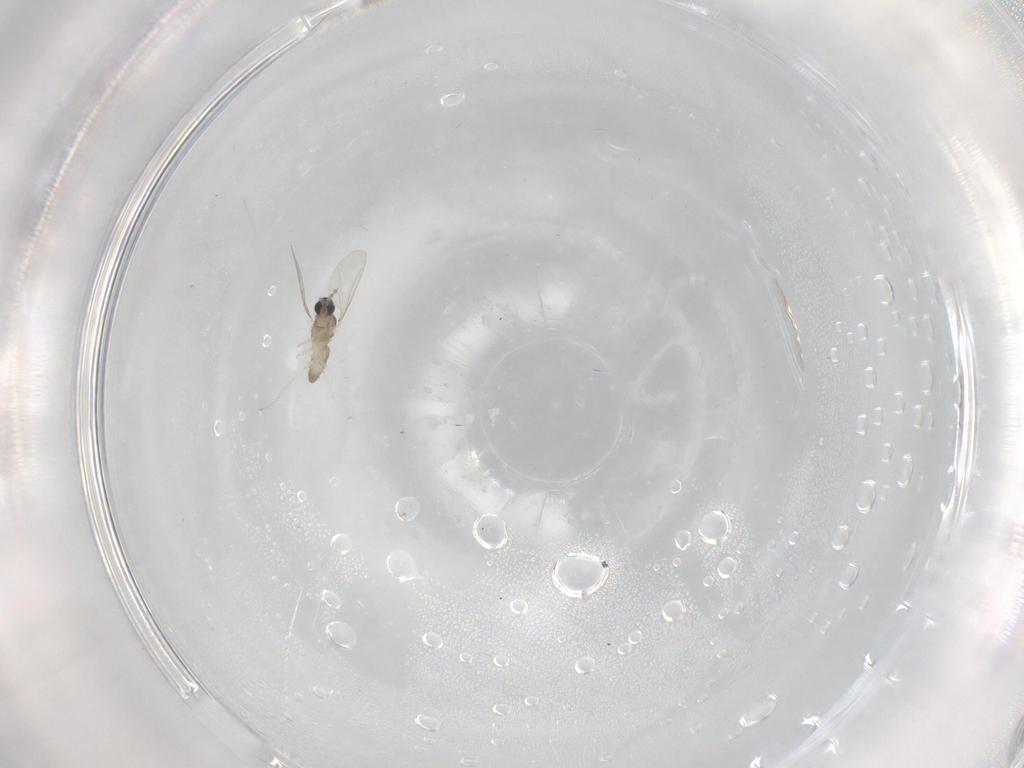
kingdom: Animalia
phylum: Arthropoda
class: Insecta
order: Diptera
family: Cecidomyiidae
